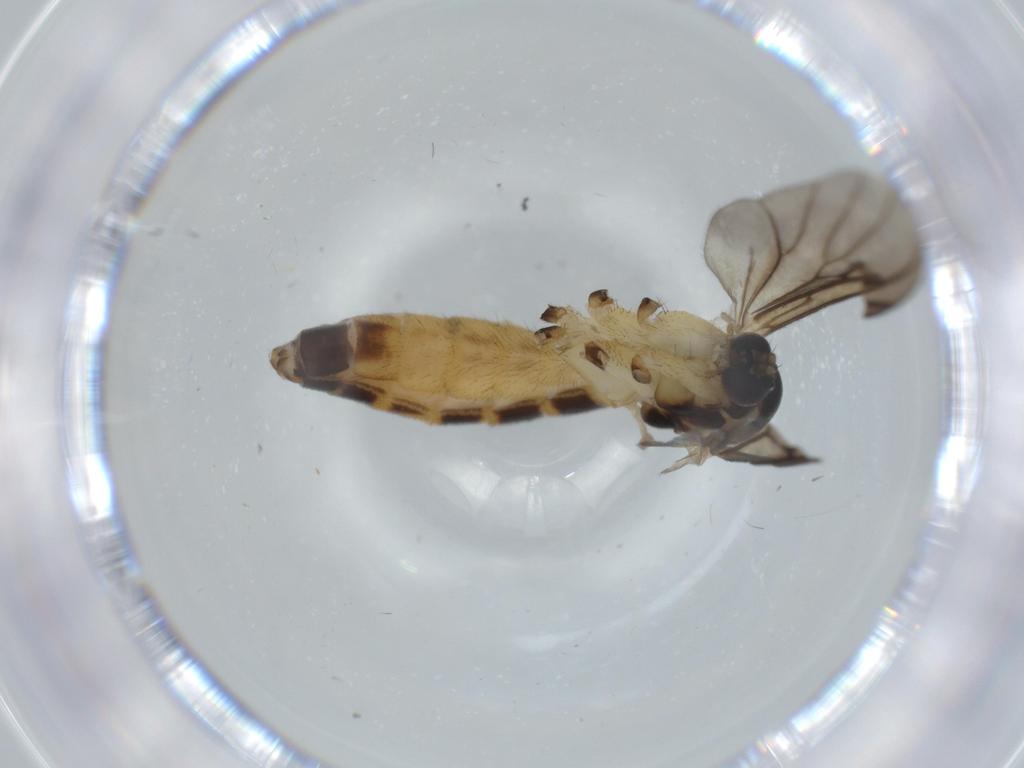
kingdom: Animalia
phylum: Arthropoda
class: Insecta
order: Diptera
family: Mycetophilidae
